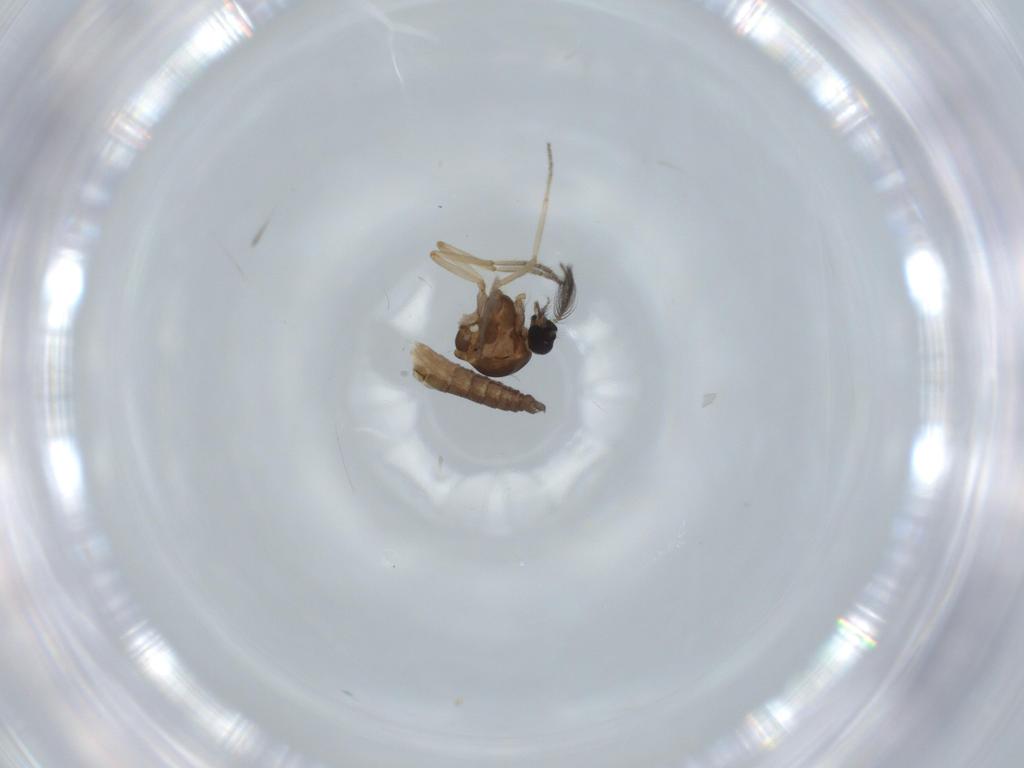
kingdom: Animalia
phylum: Arthropoda
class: Insecta
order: Diptera
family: Ceratopogonidae
